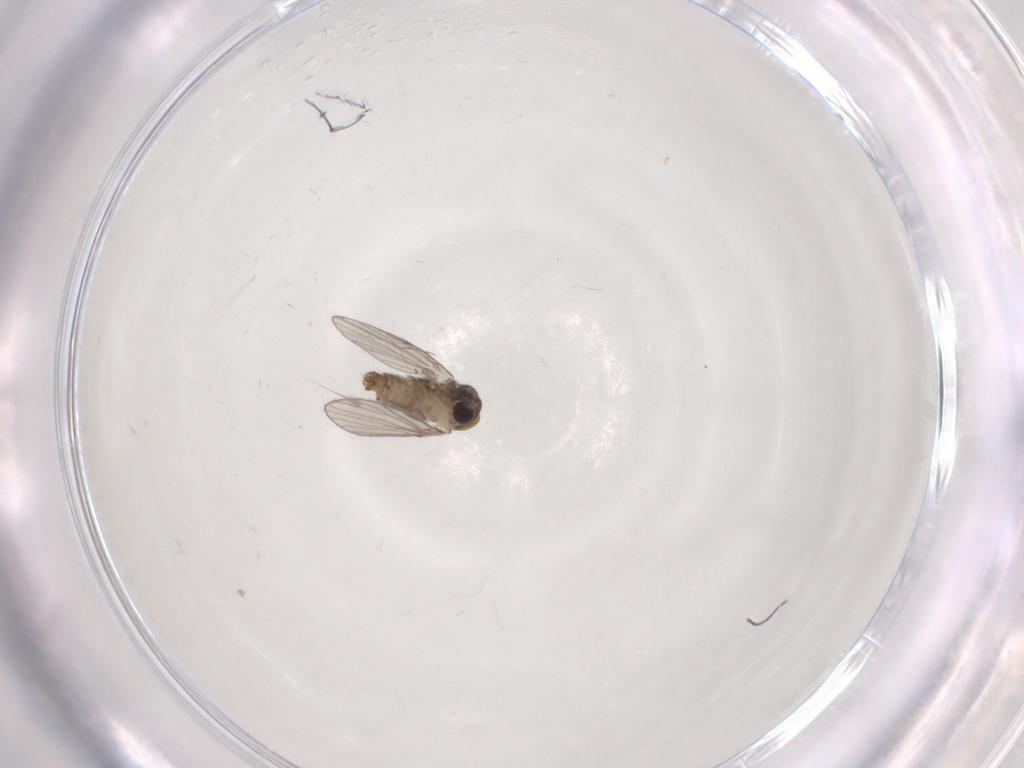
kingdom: Animalia
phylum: Arthropoda
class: Insecta
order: Diptera
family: Psychodidae
